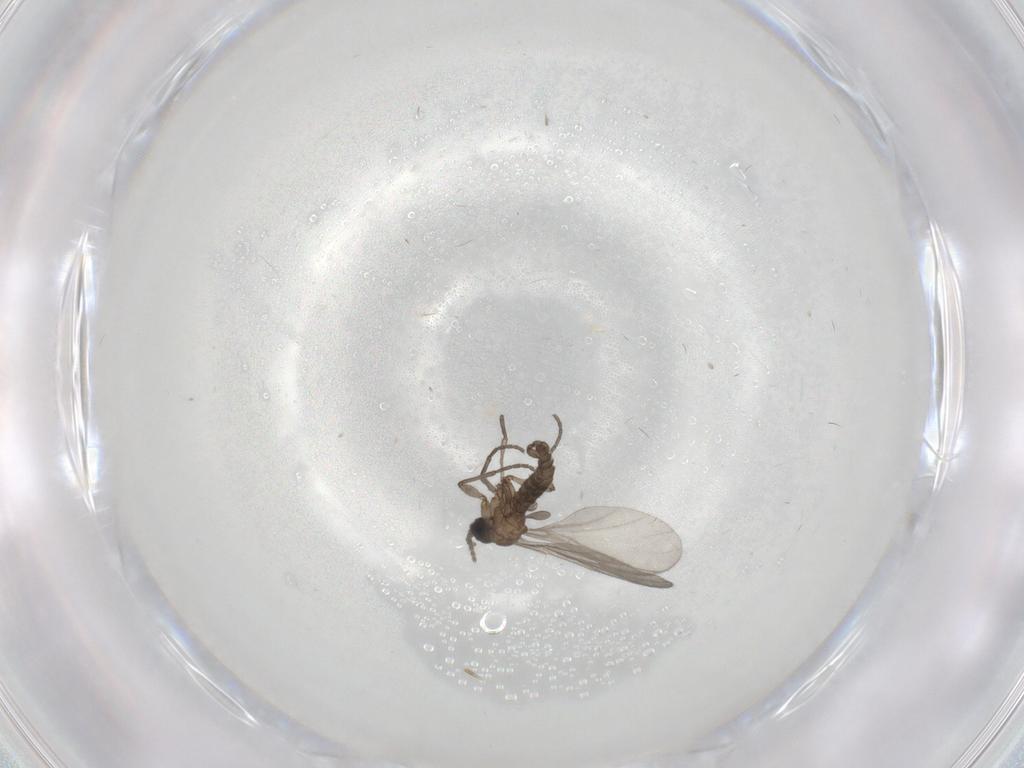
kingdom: Animalia
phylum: Arthropoda
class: Insecta
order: Diptera
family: Sciaridae
